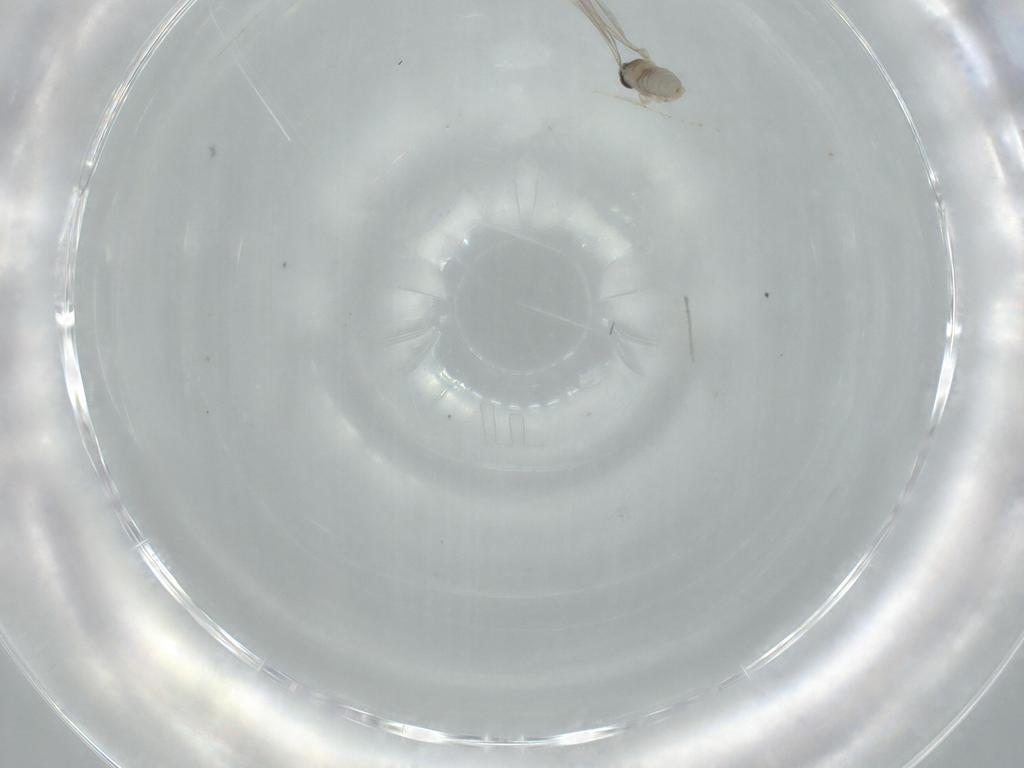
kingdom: Animalia
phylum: Arthropoda
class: Insecta
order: Diptera
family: Cecidomyiidae
